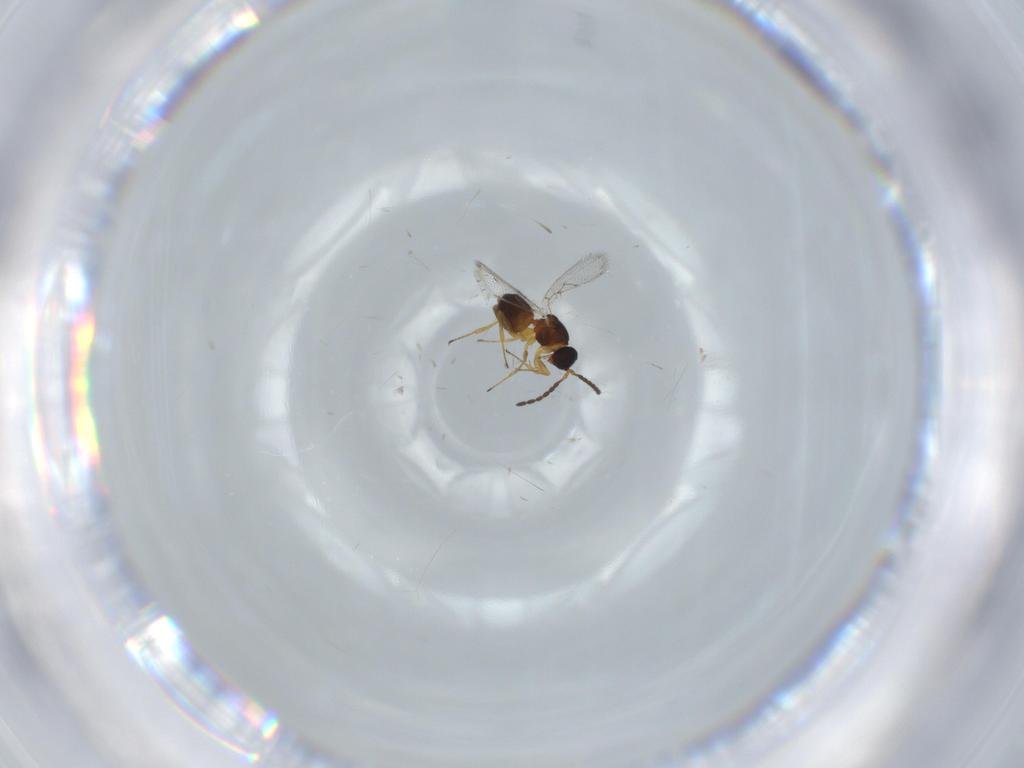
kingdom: Animalia
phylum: Arthropoda
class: Insecta
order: Hymenoptera
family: Figitidae
